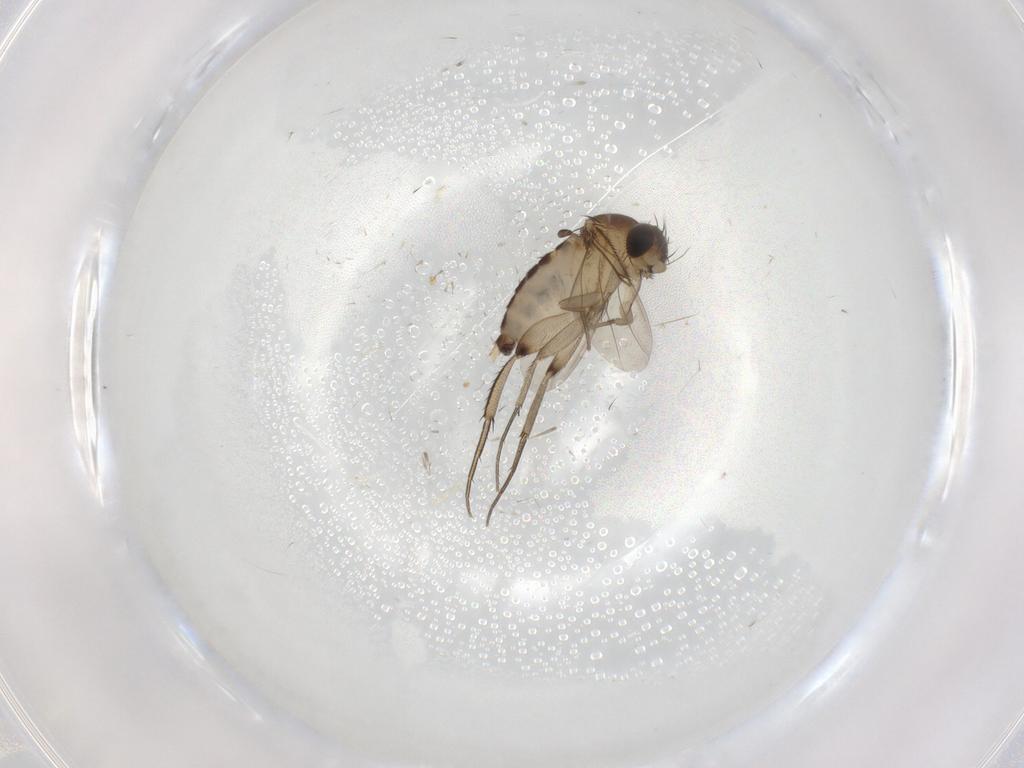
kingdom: Animalia
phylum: Arthropoda
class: Insecta
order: Diptera
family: Phoridae
